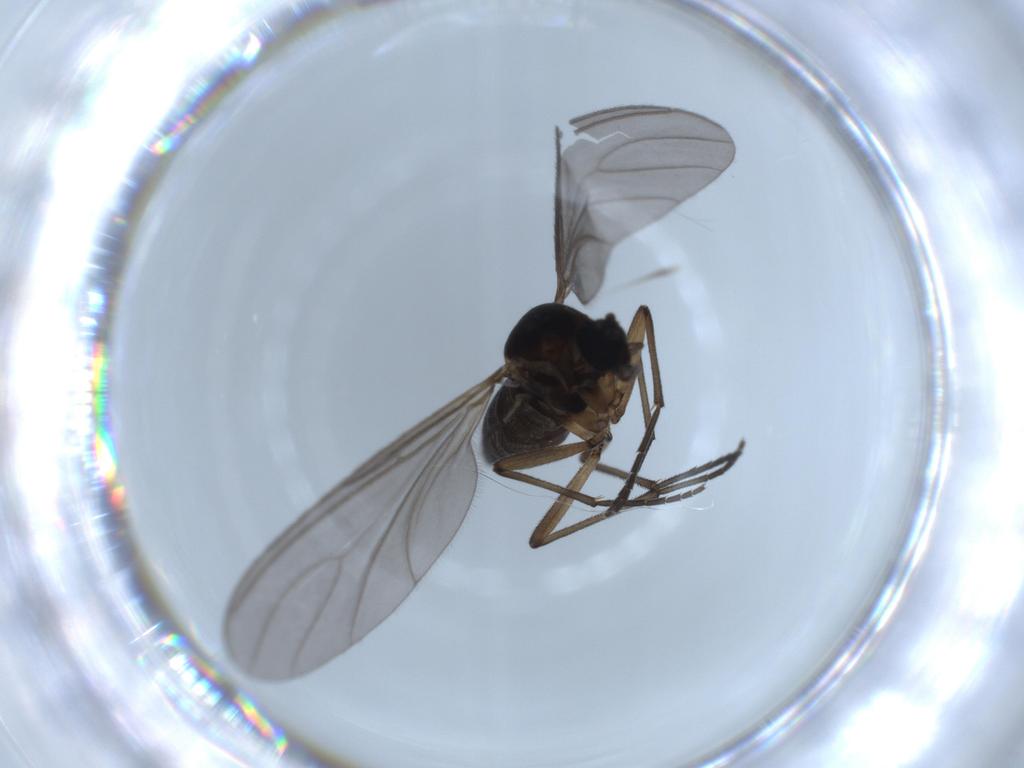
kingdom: Animalia
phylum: Arthropoda
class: Insecta
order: Diptera
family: Sciaridae
